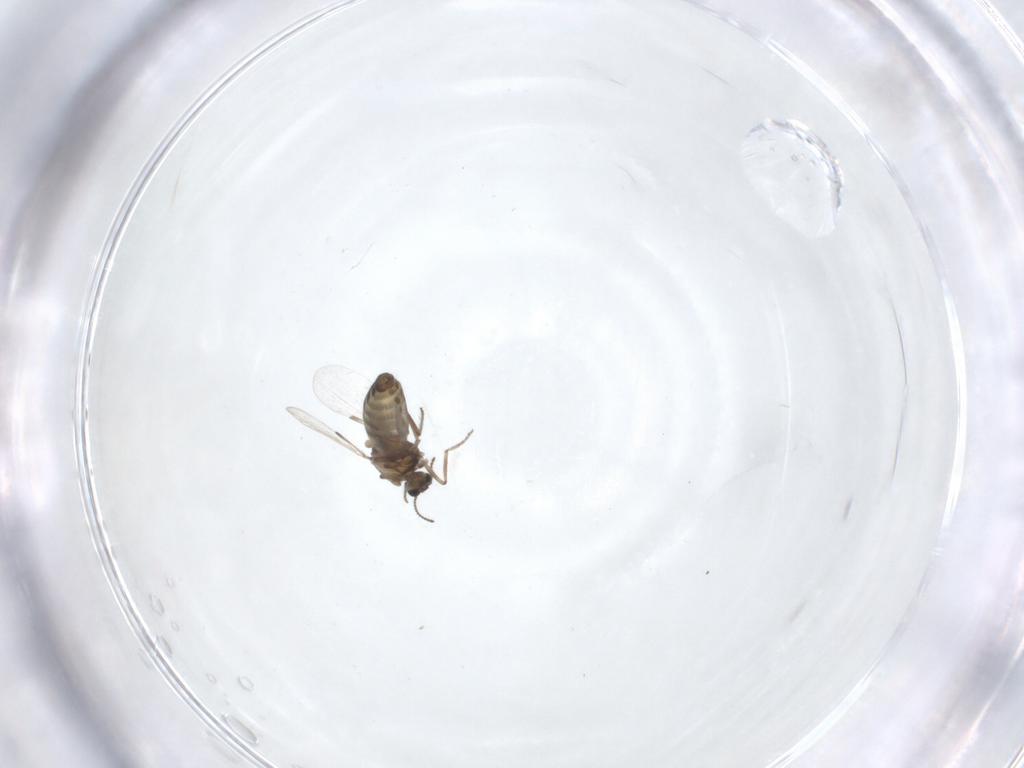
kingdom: Animalia
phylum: Arthropoda
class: Insecta
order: Diptera
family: Ceratopogonidae
